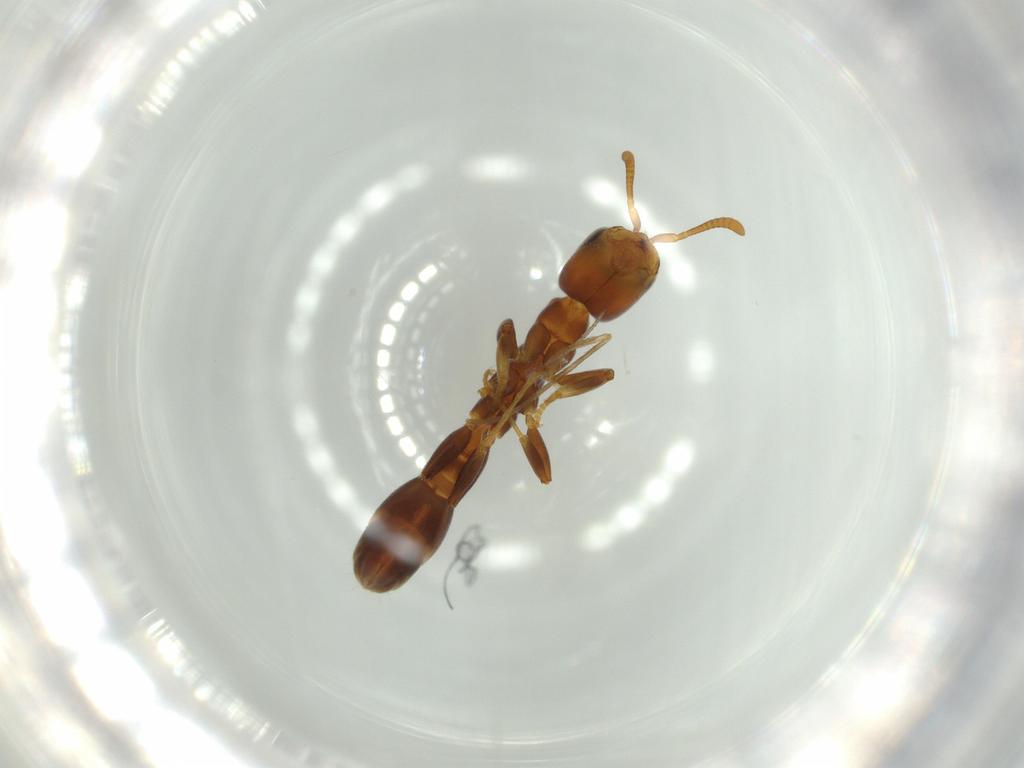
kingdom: Animalia
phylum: Arthropoda
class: Insecta
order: Hymenoptera
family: Formicidae
